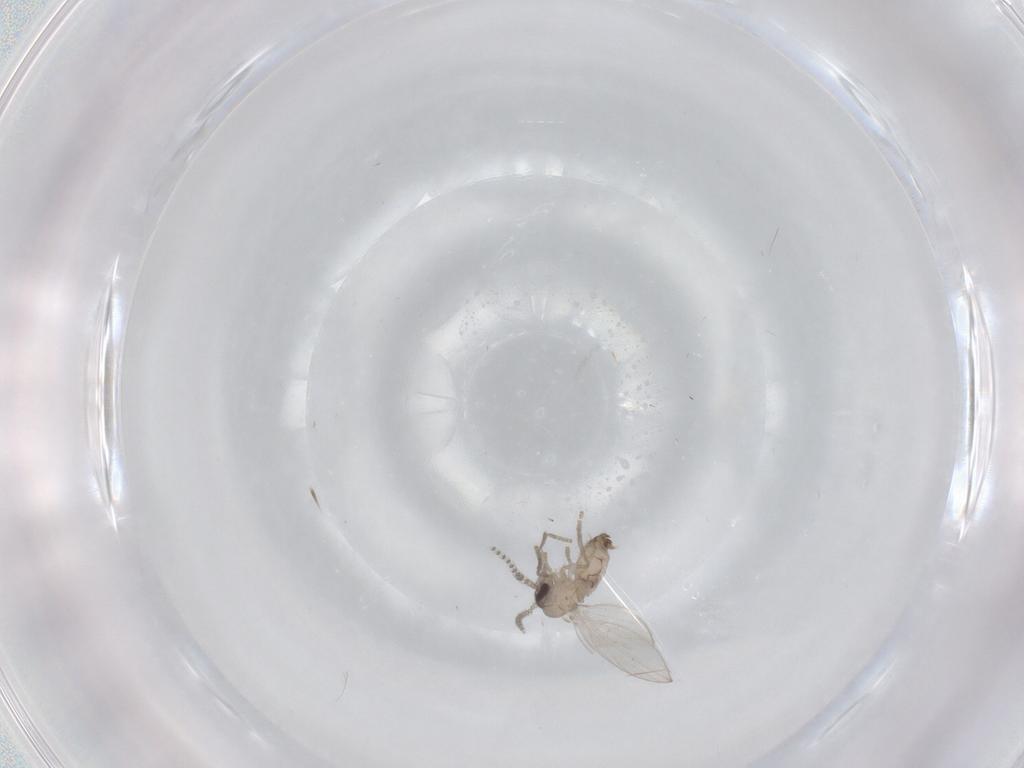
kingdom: Animalia
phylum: Arthropoda
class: Insecta
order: Diptera
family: Psychodidae
